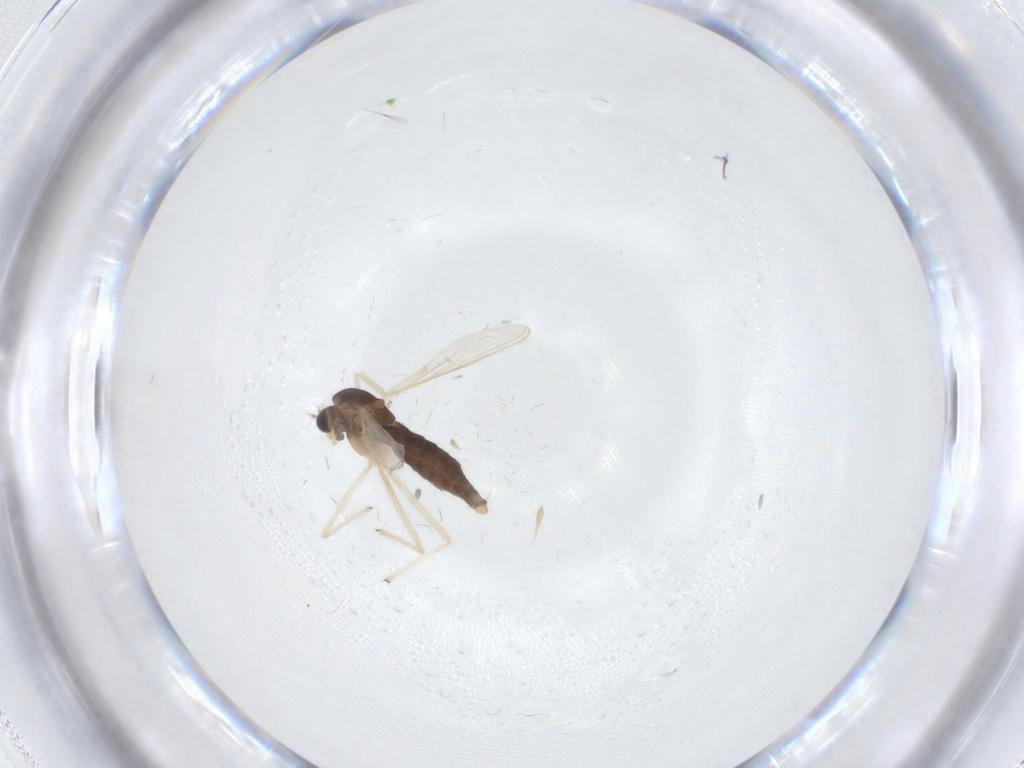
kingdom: Animalia
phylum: Arthropoda
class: Insecta
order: Diptera
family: Chironomidae
